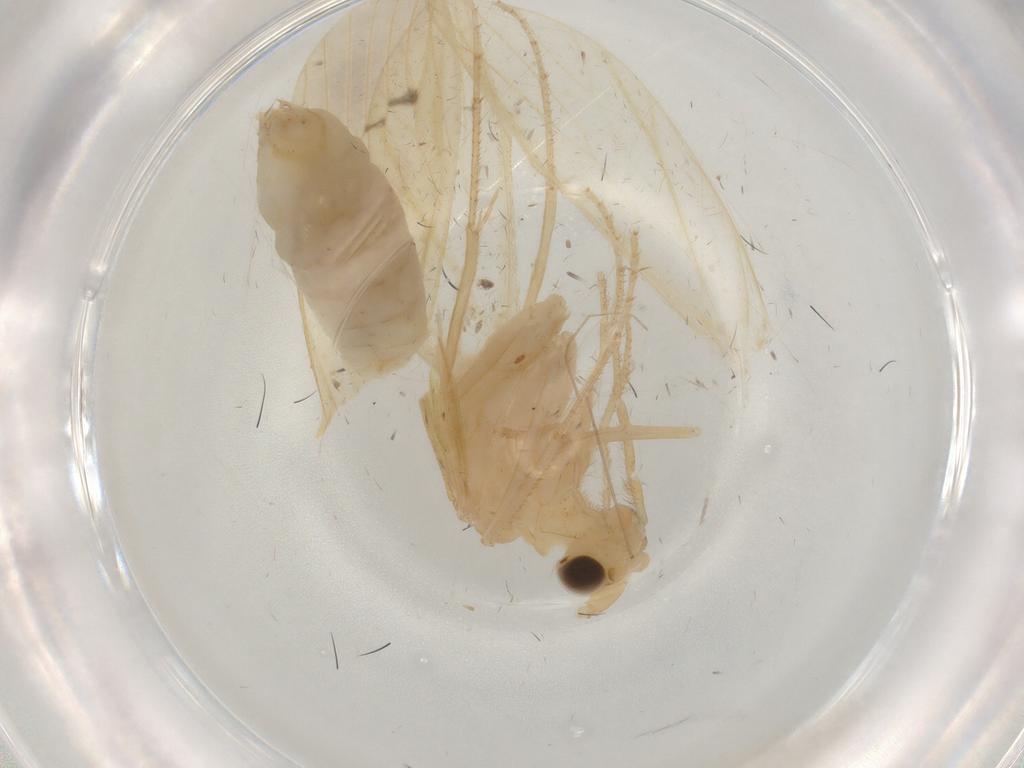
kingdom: Animalia
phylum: Arthropoda
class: Insecta
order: Trichoptera
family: Leptoceridae
